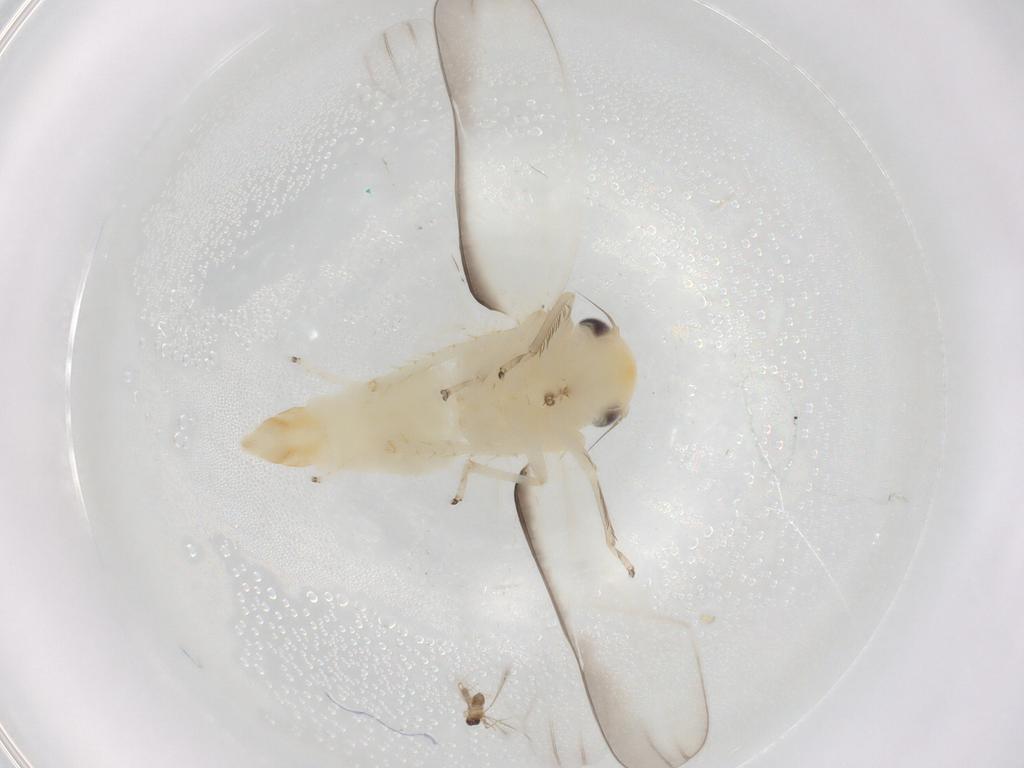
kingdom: Animalia
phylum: Arthropoda
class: Insecta
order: Hemiptera
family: Cicadellidae
